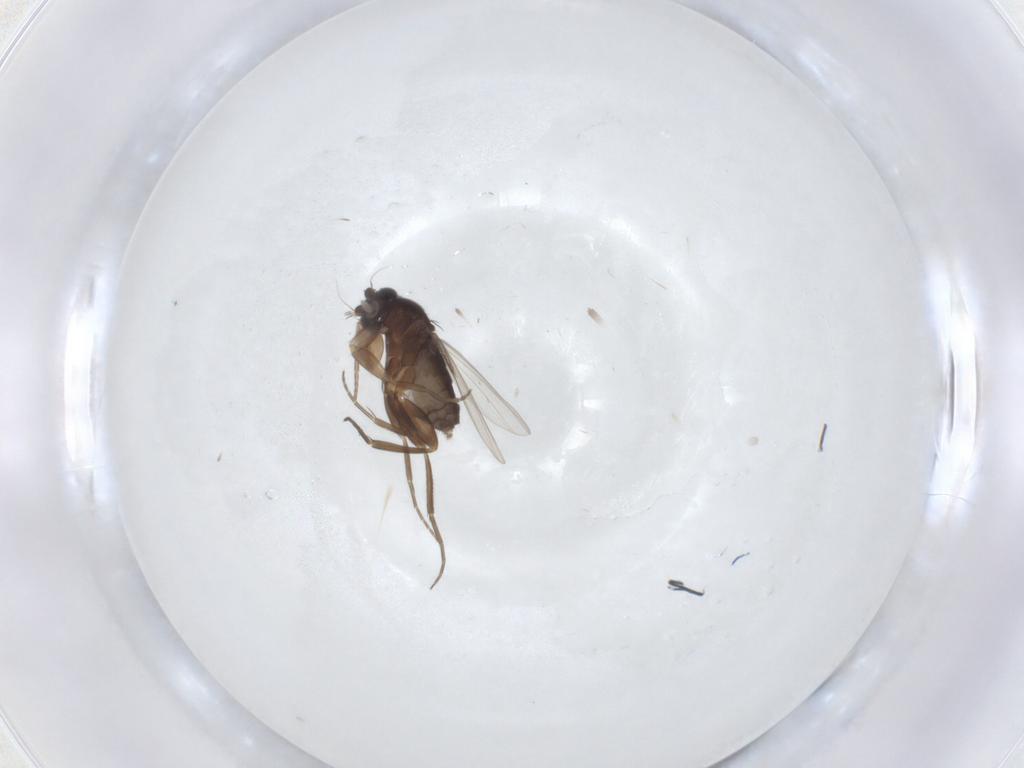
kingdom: Animalia
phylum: Arthropoda
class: Insecta
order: Diptera
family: Phoridae
